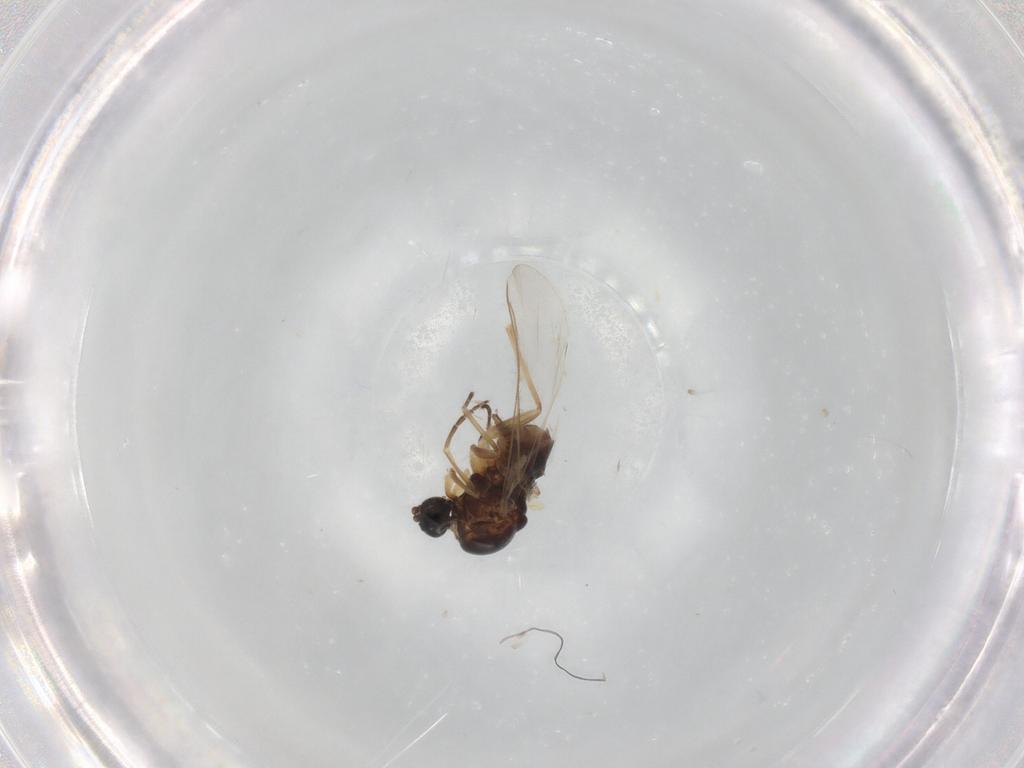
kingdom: Animalia
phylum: Arthropoda
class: Insecta
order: Diptera
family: Sciaridae
